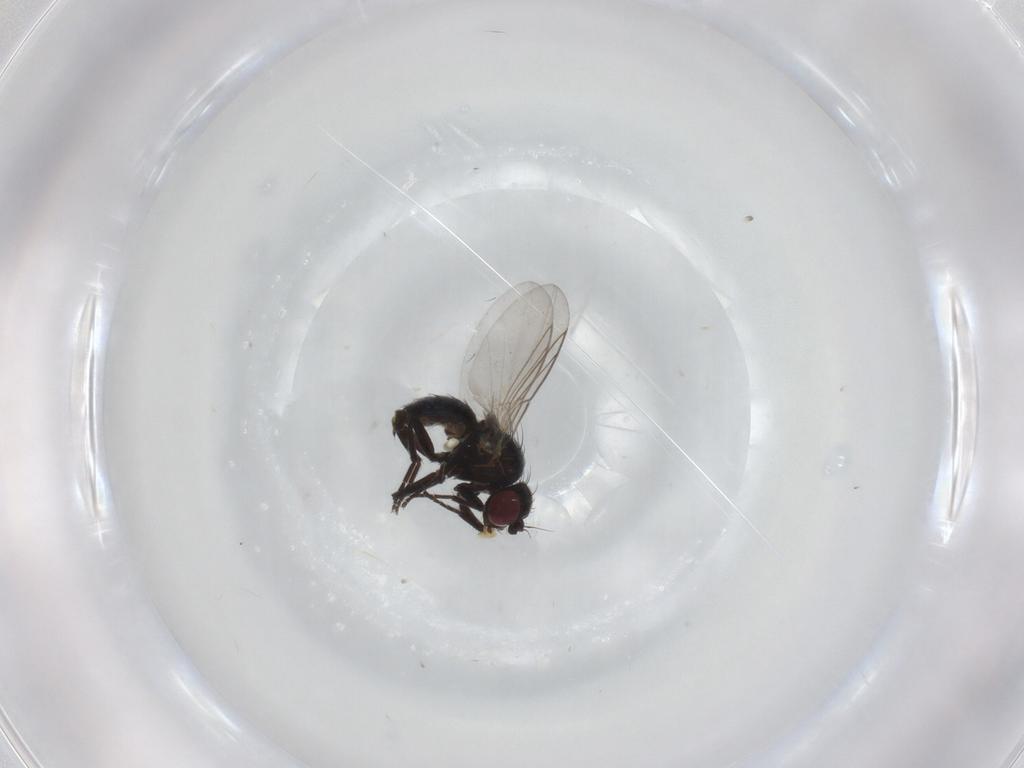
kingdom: Animalia
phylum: Arthropoda
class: Insecta
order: Diptera
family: Sciaridae
